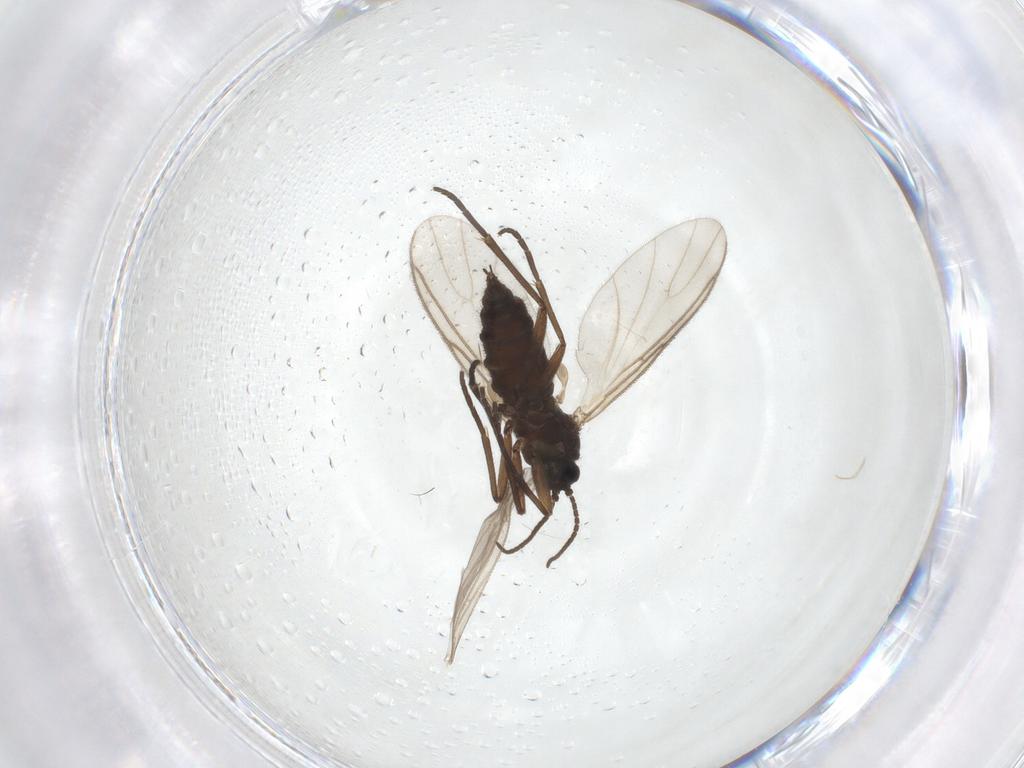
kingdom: Animalia
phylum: Arthropoda
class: Insecta
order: Diptera
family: Sciaridae
